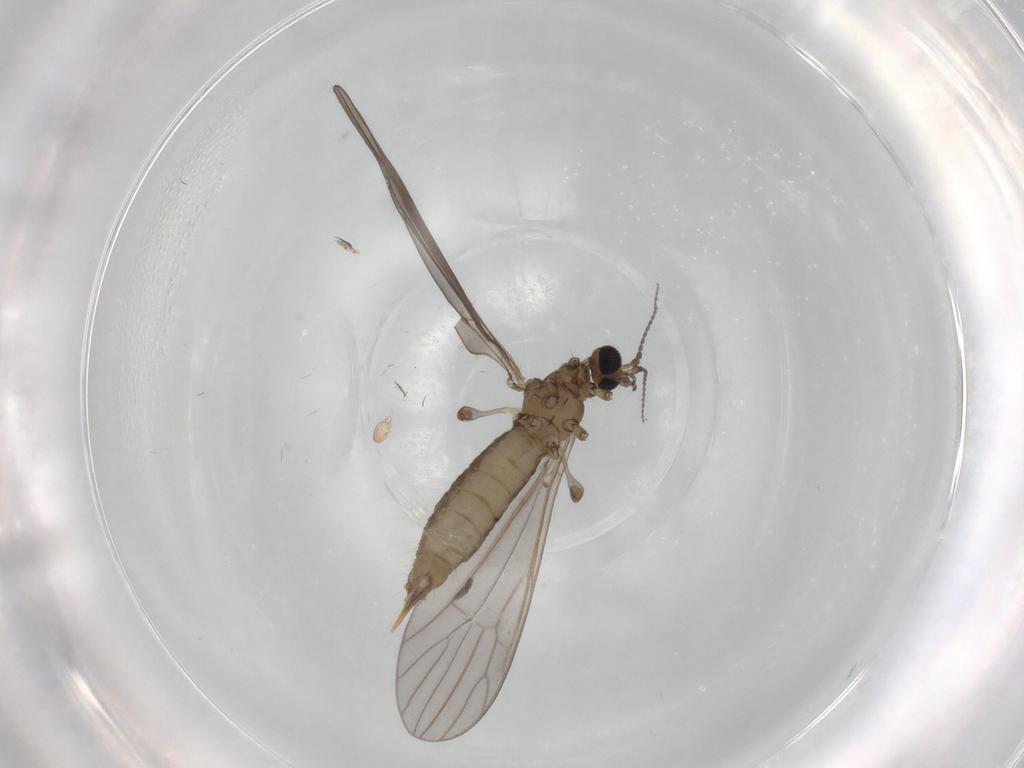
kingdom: Animalia
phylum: Arthropoda
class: Insecta
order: Diptera
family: Limoniidae
